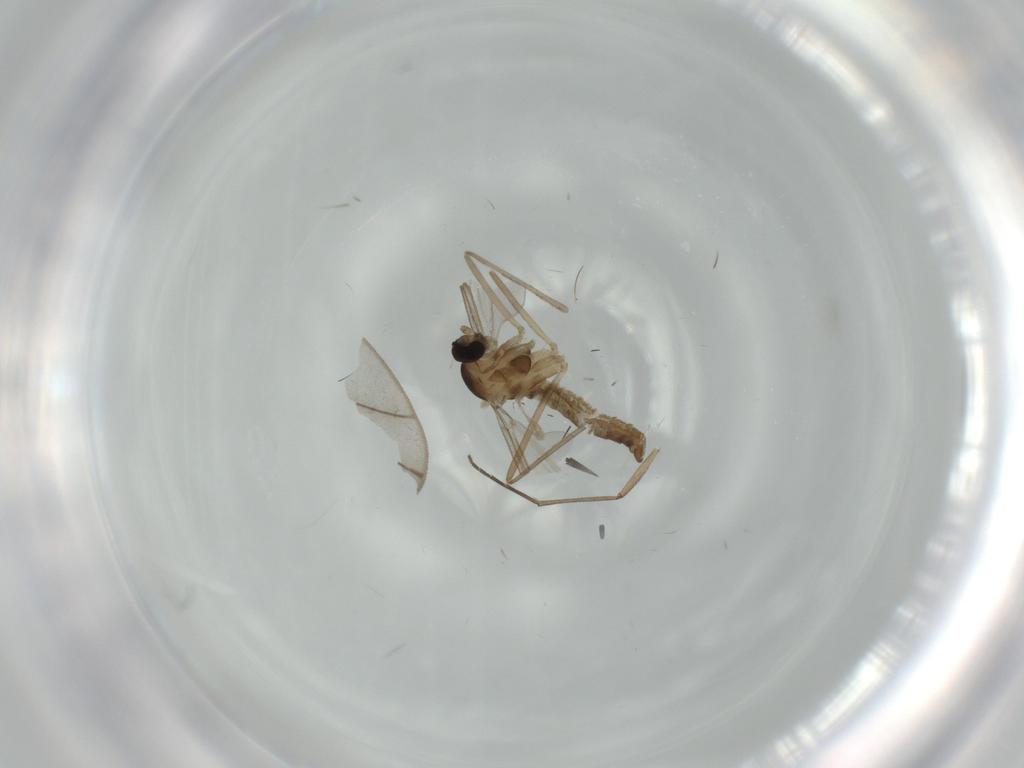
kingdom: Animalia
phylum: Arthropoda
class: Insecta
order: Diptera
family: Cecidomyiidae
